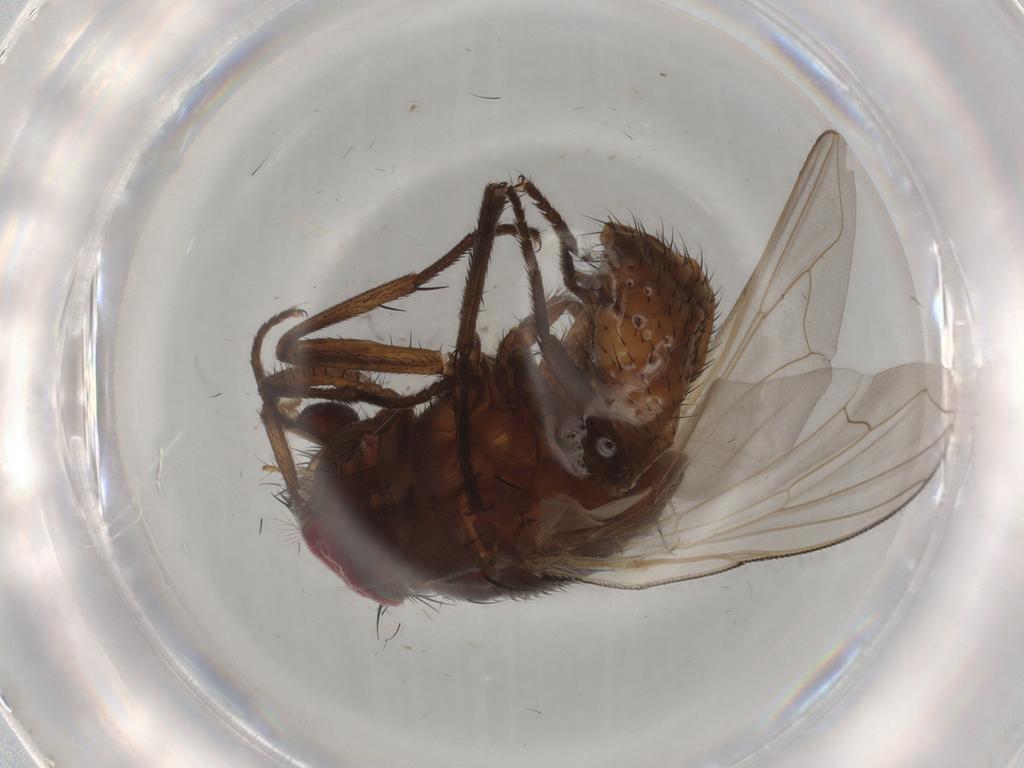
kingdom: Animalia
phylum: Arthropoda
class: Insecta
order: Diptera
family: Muscidae
